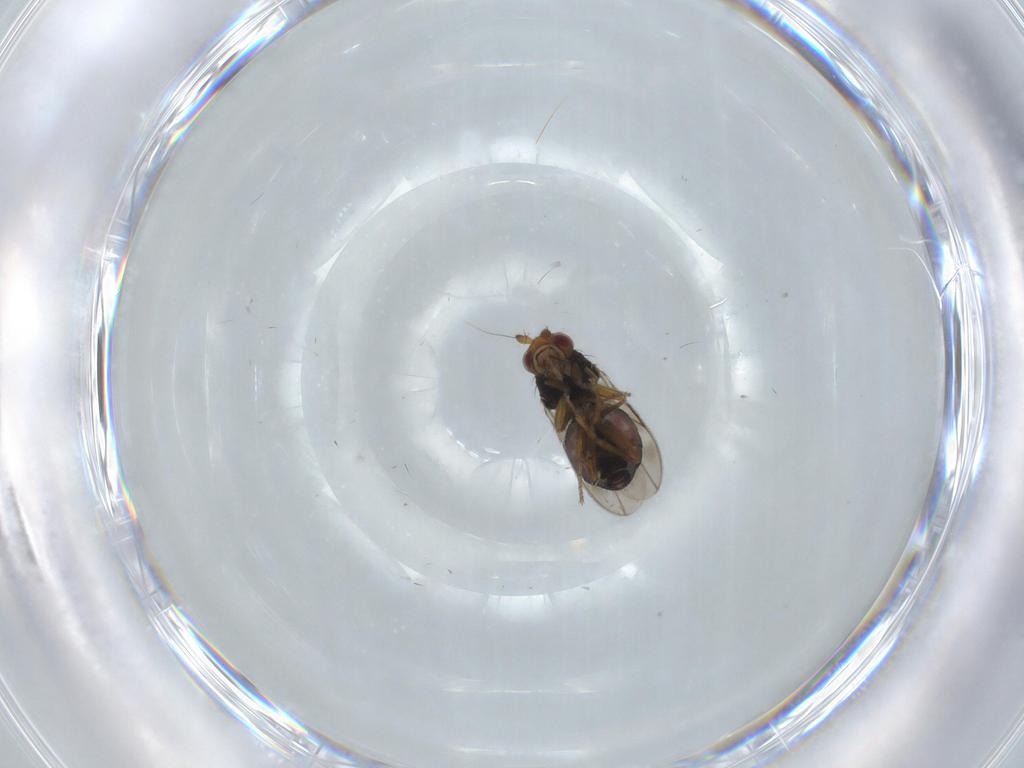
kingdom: Animalia
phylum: Arthropoda
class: Insecta
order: Diptera
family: Sphaeroceridae
